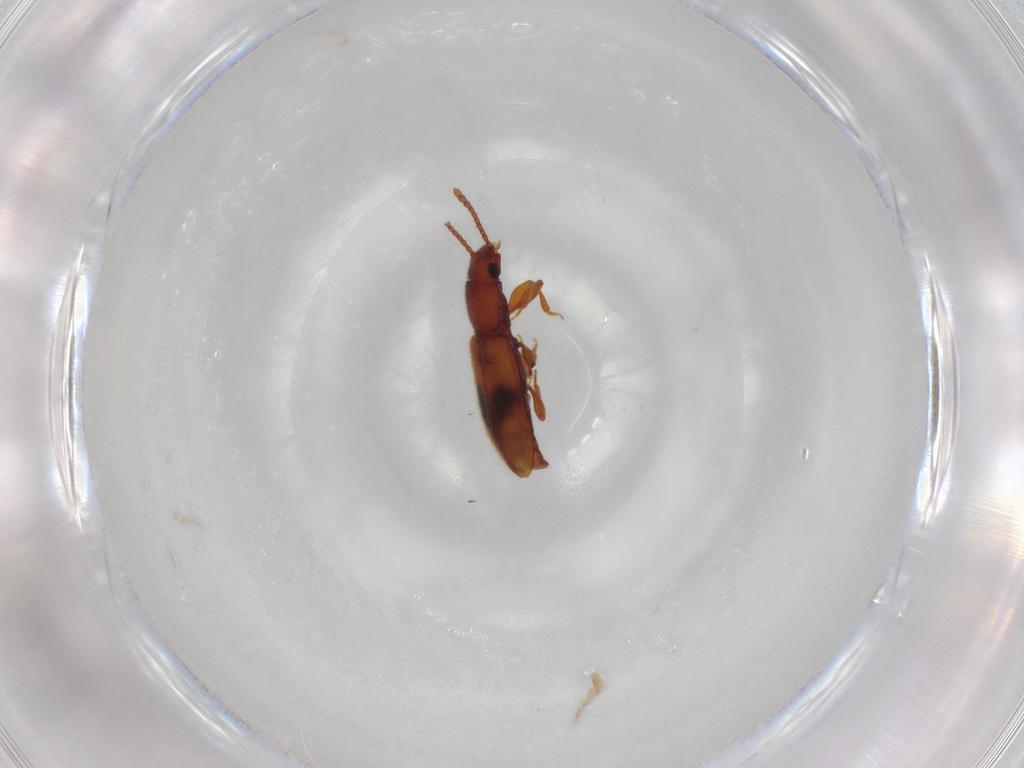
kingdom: Animalia
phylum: Arthropoda
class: Insecta
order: Coleoptera
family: Silvanidae
